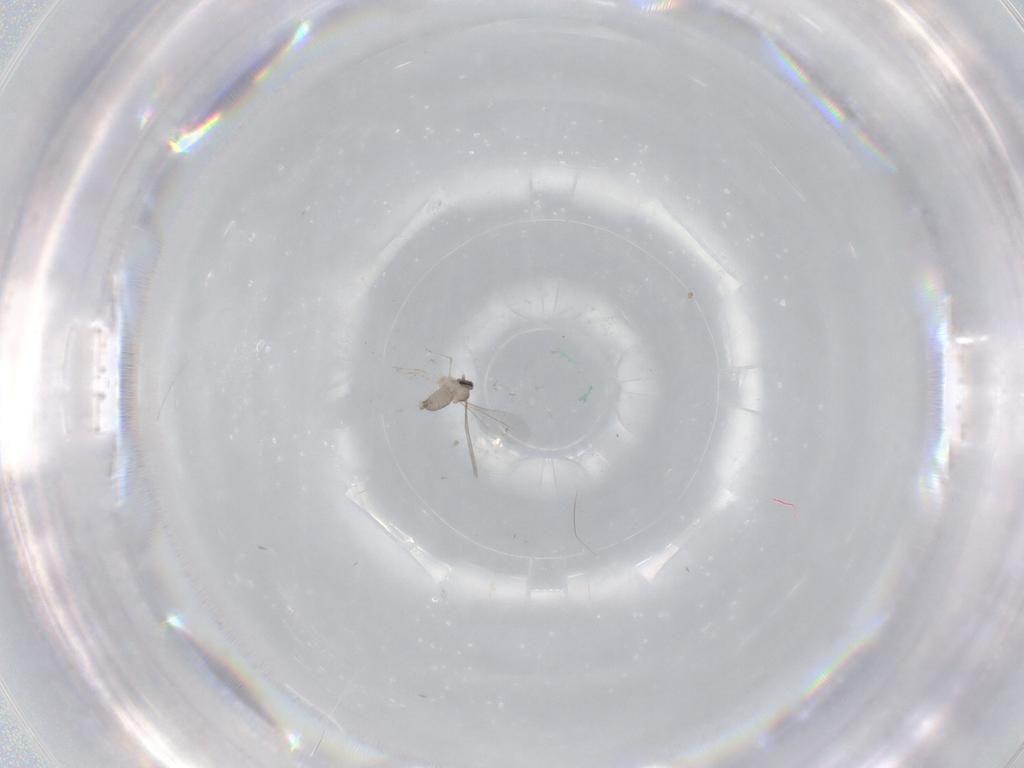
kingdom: Animalia
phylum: Arthropoda
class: Insecta
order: Diptera
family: Cecidomyiidae
